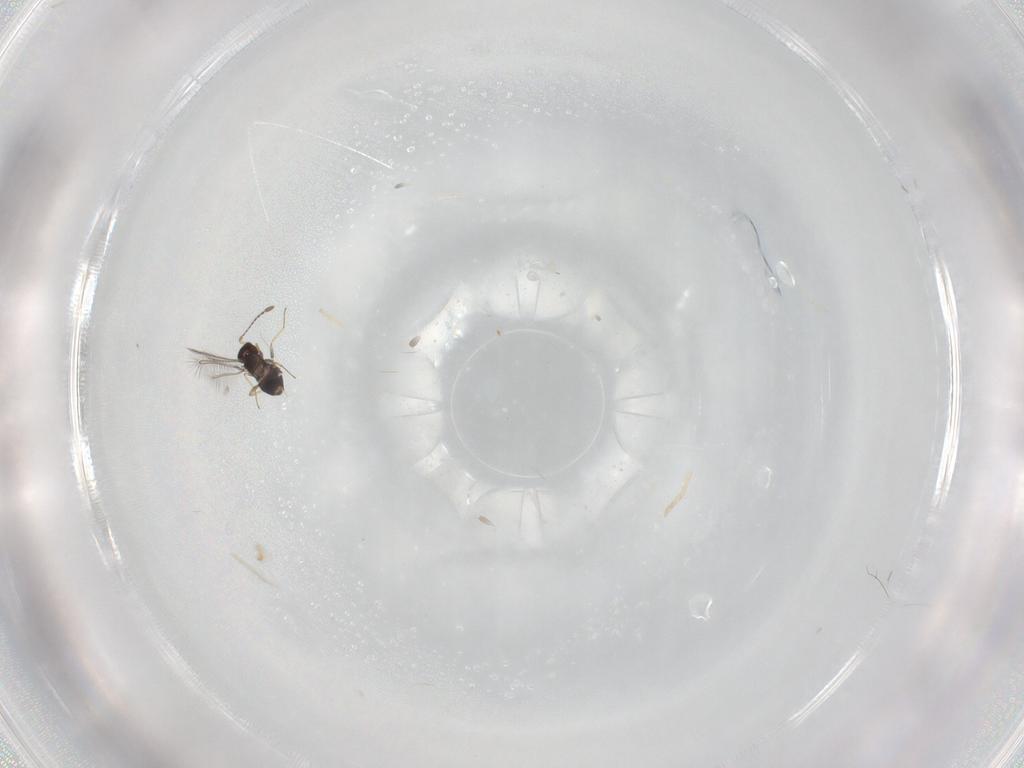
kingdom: Animalia
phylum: Arthropoda
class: Insecta
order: Hymenoptera
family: Mymaridae
